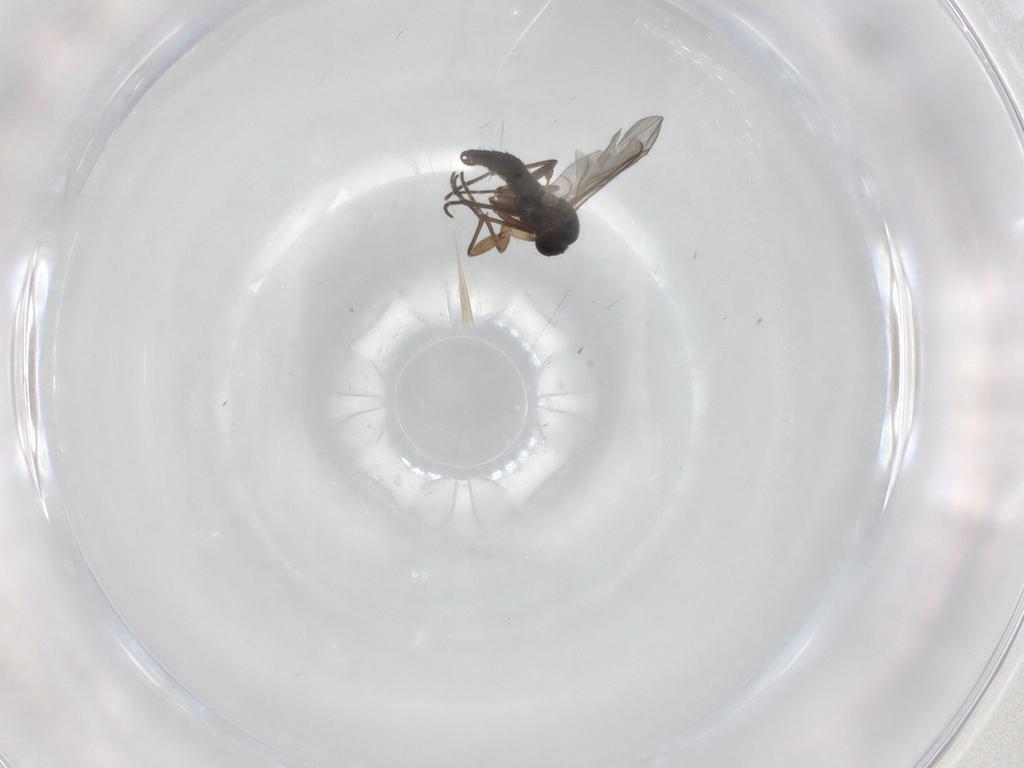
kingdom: Animalia
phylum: Arthropoda
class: Insecta
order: Diptera
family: Sciaridae
